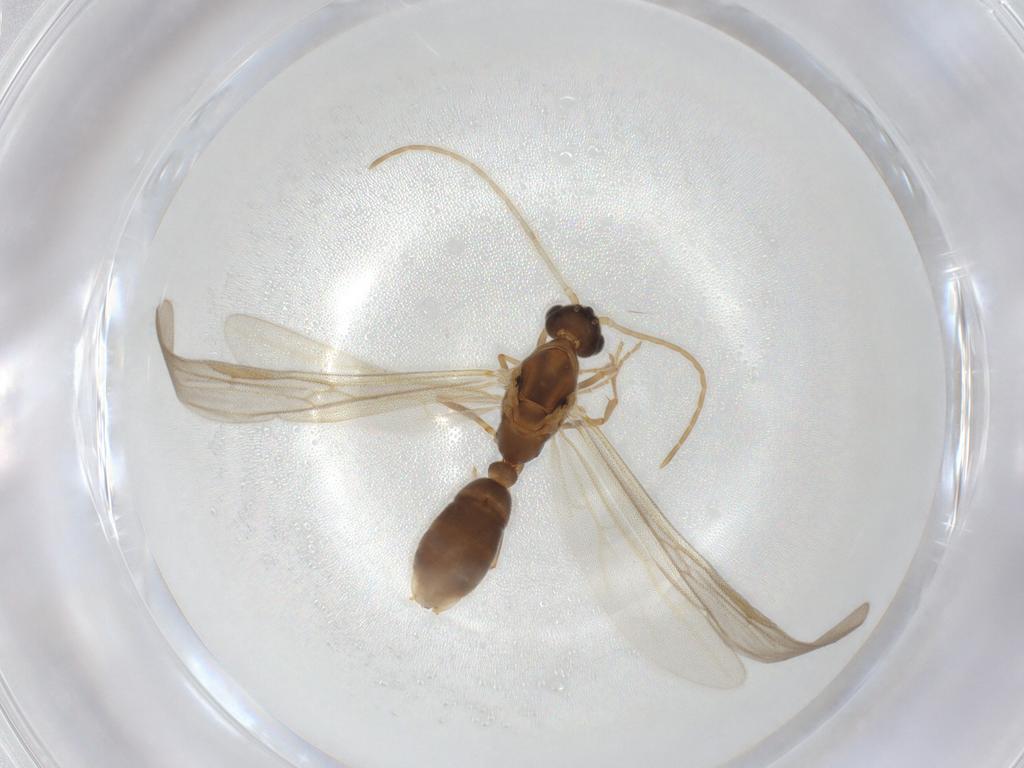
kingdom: Animalia
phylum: Arthropoda
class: Insecta
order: Hymenoptera
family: Formicidae
